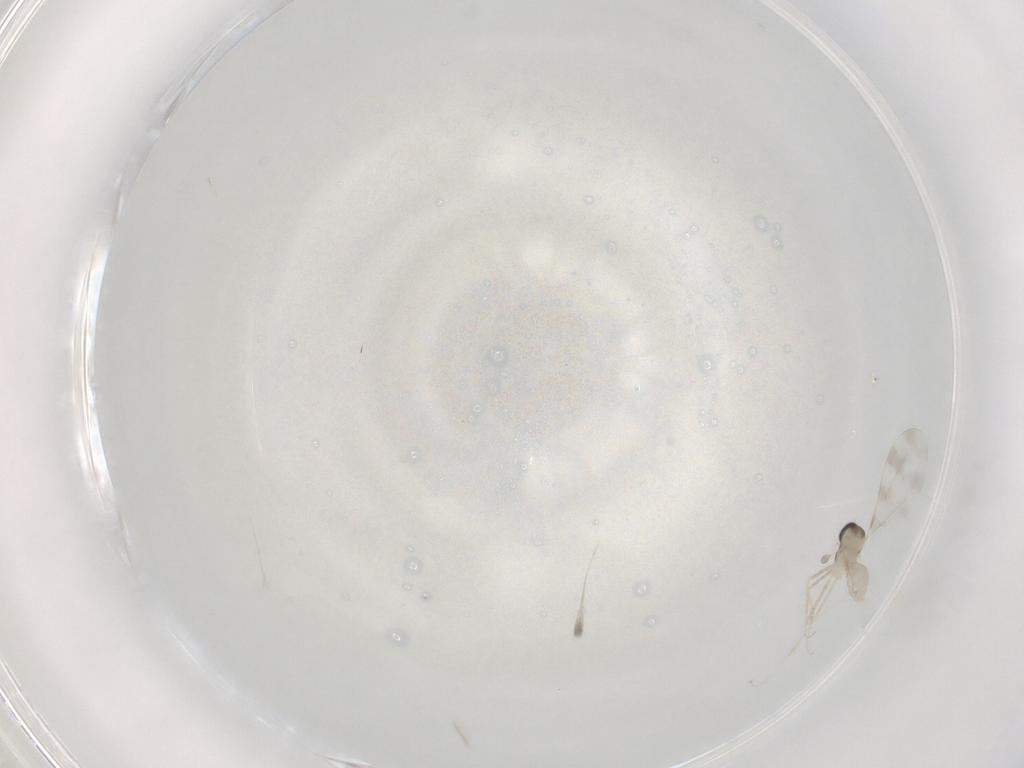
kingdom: Animalia
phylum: Arthropoda
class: Insecta
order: Diptera
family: Cecidomyiidae
